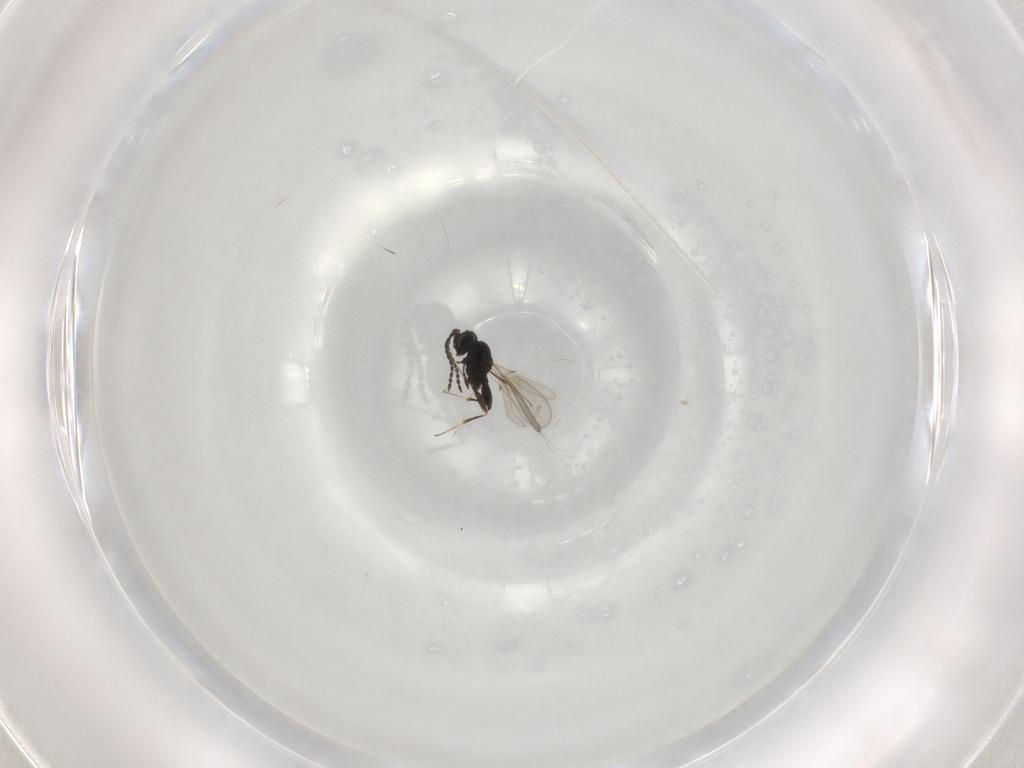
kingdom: Animalia
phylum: Arthropoda
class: Insecta
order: Hymenoptera
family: Scelionidae
